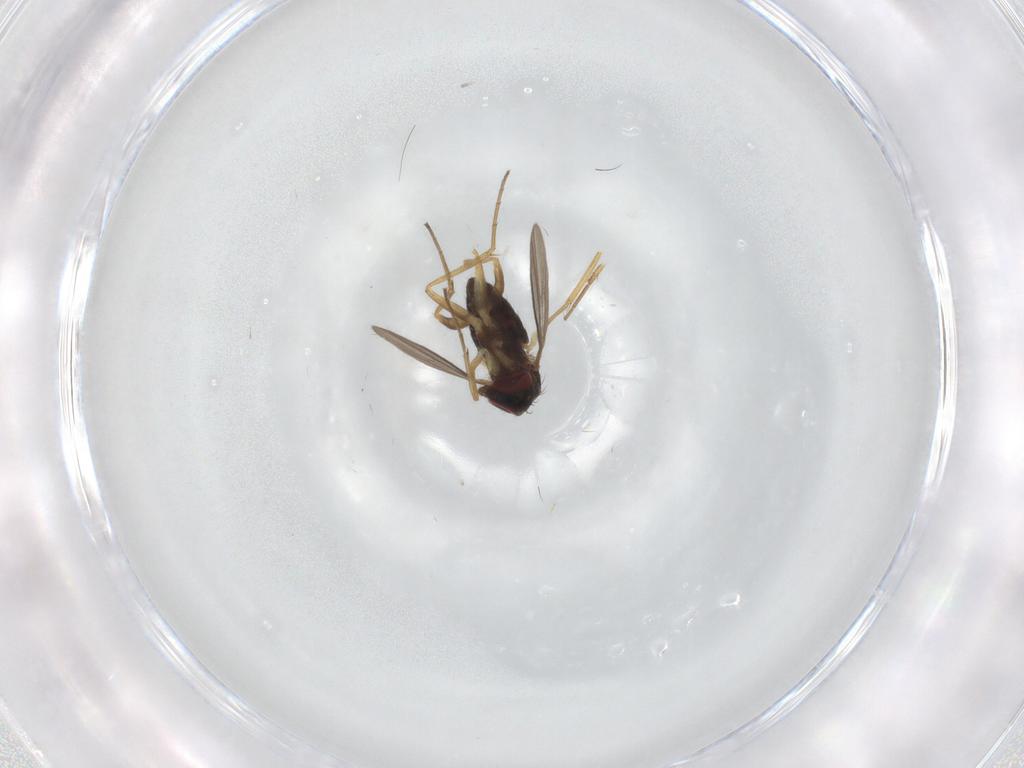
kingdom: Animalia
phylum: Arthropoda
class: Insecta
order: Diptera
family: Dolichopodidae
